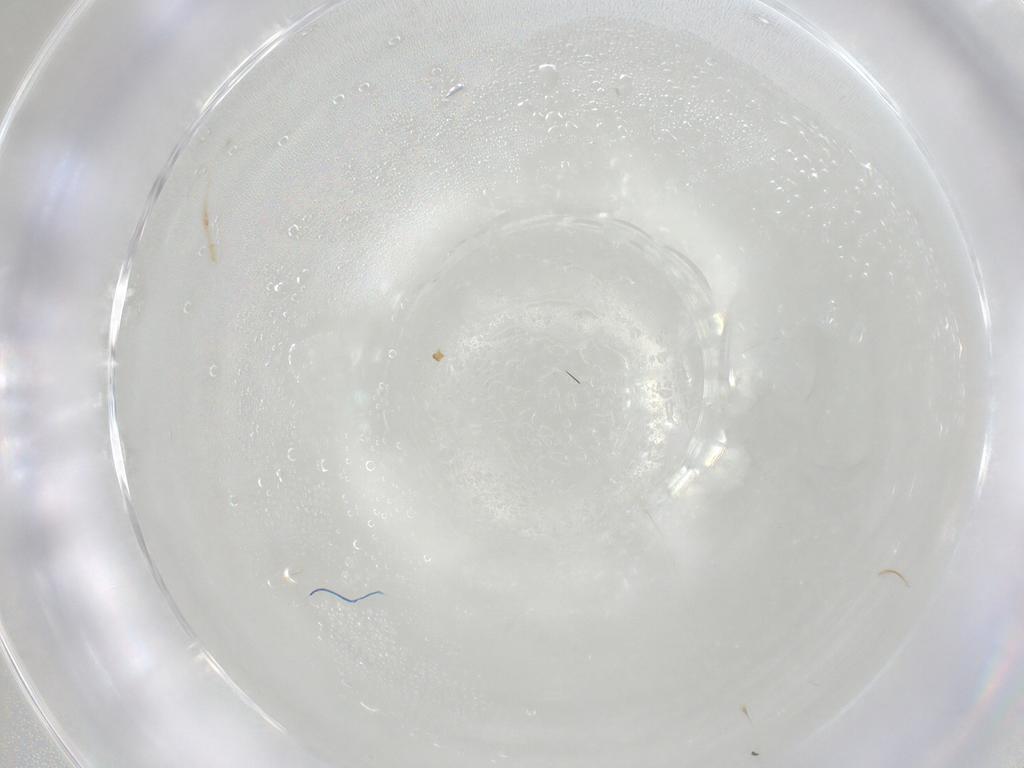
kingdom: Animalia
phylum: Arthropoda
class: Insecta
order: Diptera
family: Chironomidae
